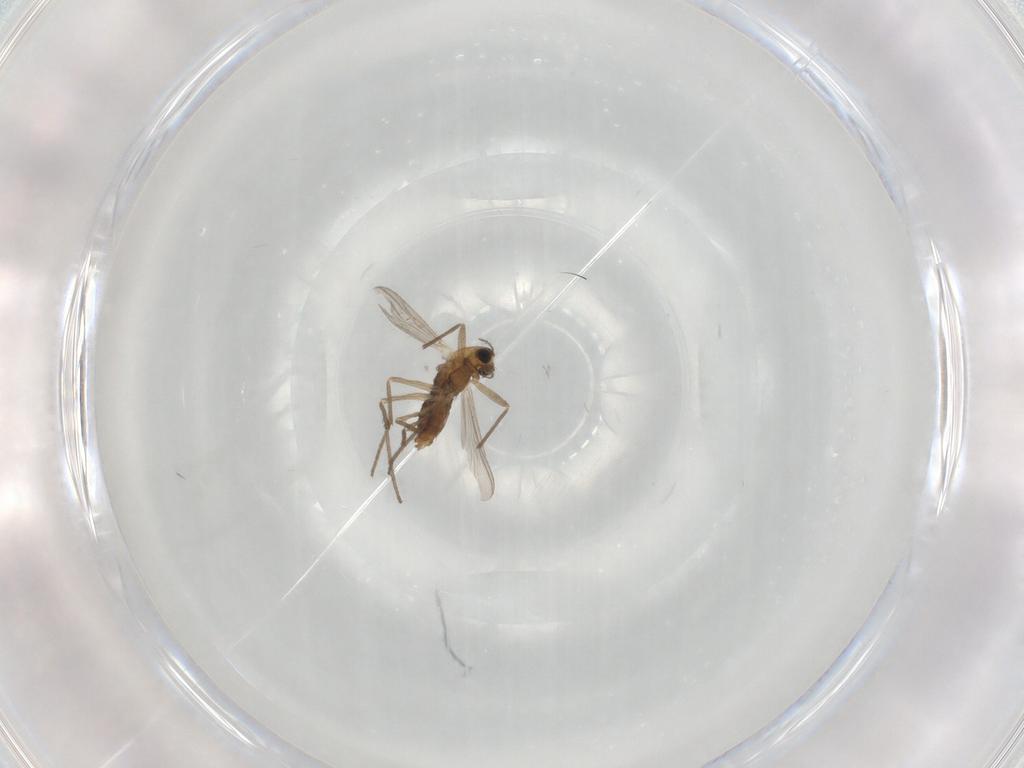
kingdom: Animalia
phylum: Arthropoda
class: Insecta
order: Diptera
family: Chironomidae
